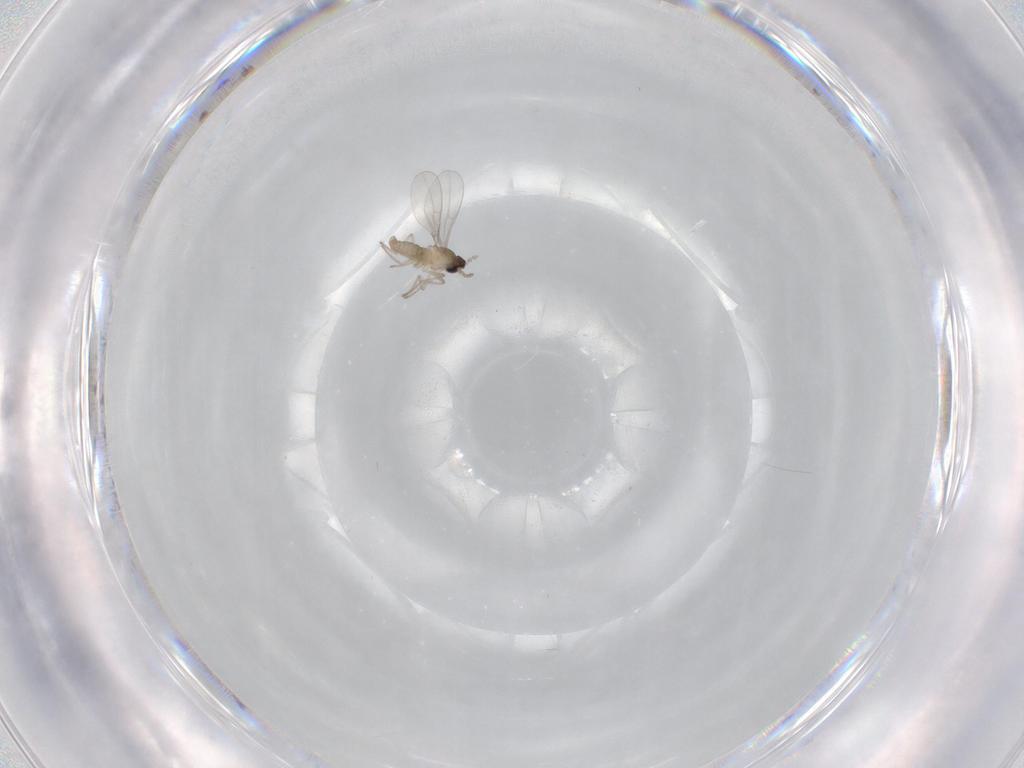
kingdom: Animalia
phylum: Arthropoda
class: Insecta
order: Diptera
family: Cecidomyiidae
